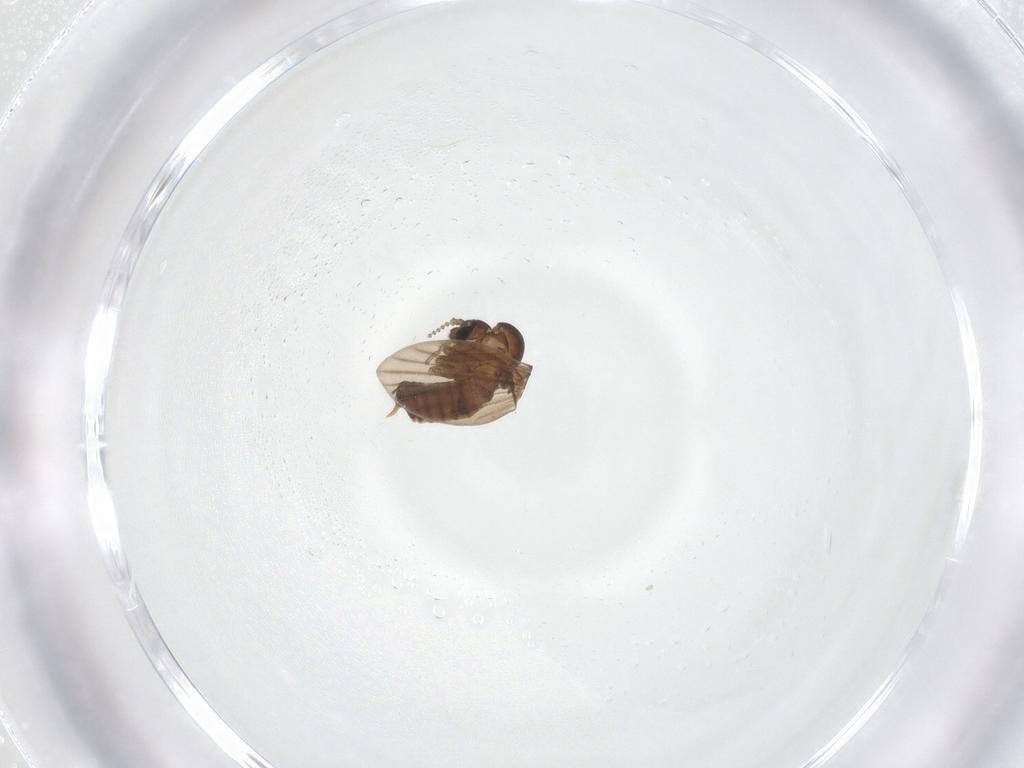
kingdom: Animalia
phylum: Arthropoda
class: Insecta
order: Diptera
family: Psychodidae
